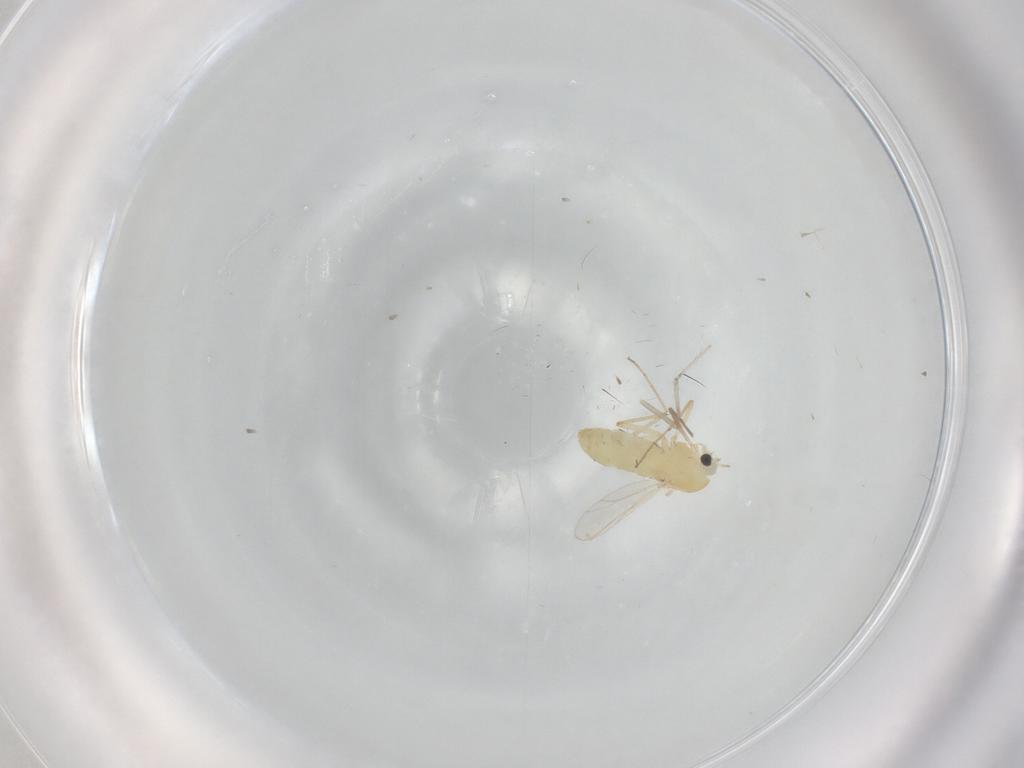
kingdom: Animalia
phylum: Arthropoda
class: Insecta
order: Diptera
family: Chironomidae
